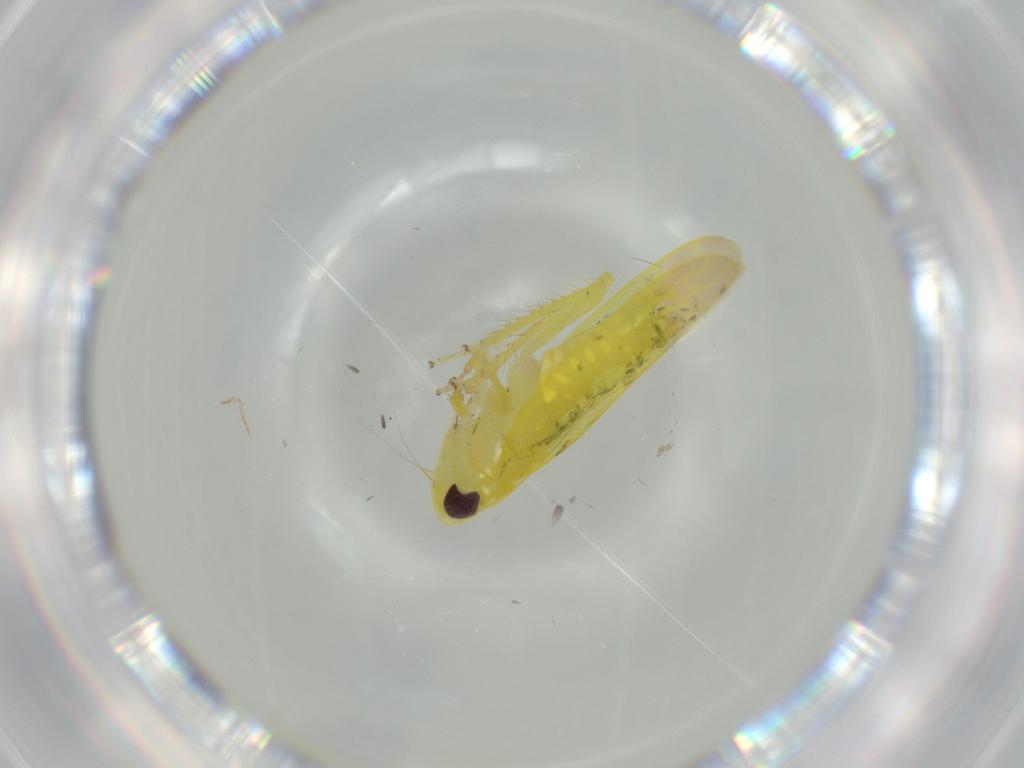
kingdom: Animalia
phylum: Arthropoda
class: Insecta
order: Hemiptera
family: Cicadellidae
